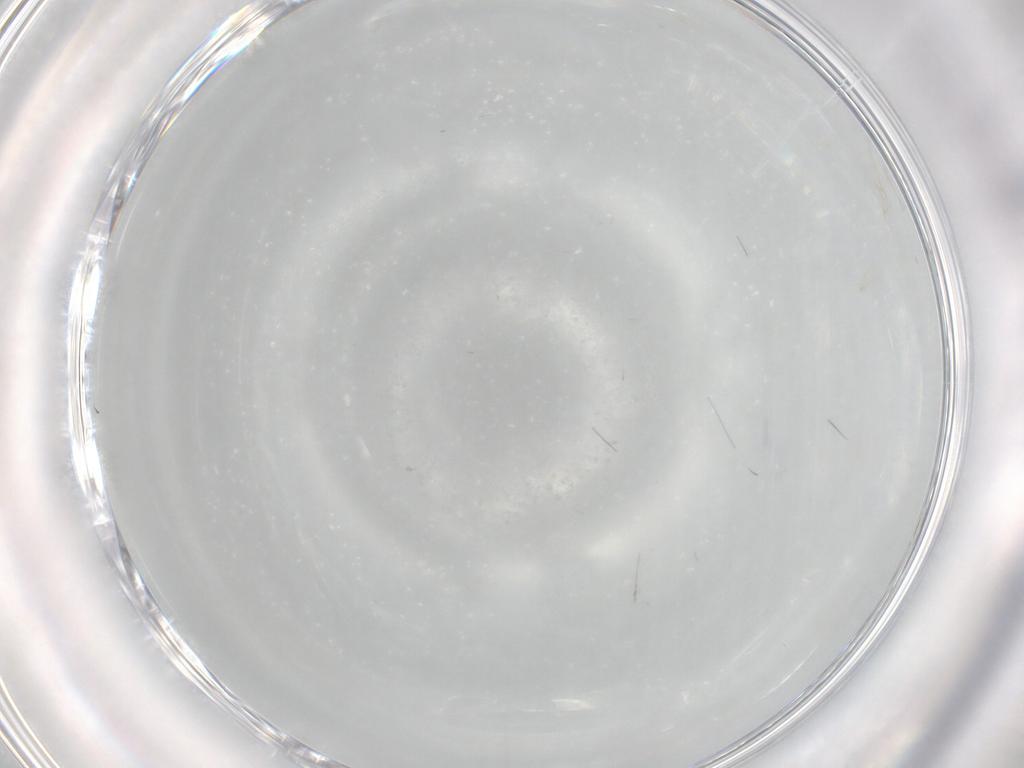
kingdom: Animalia
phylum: Arthropoda
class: Insecta
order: Diptera
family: Cecidomyiidae
